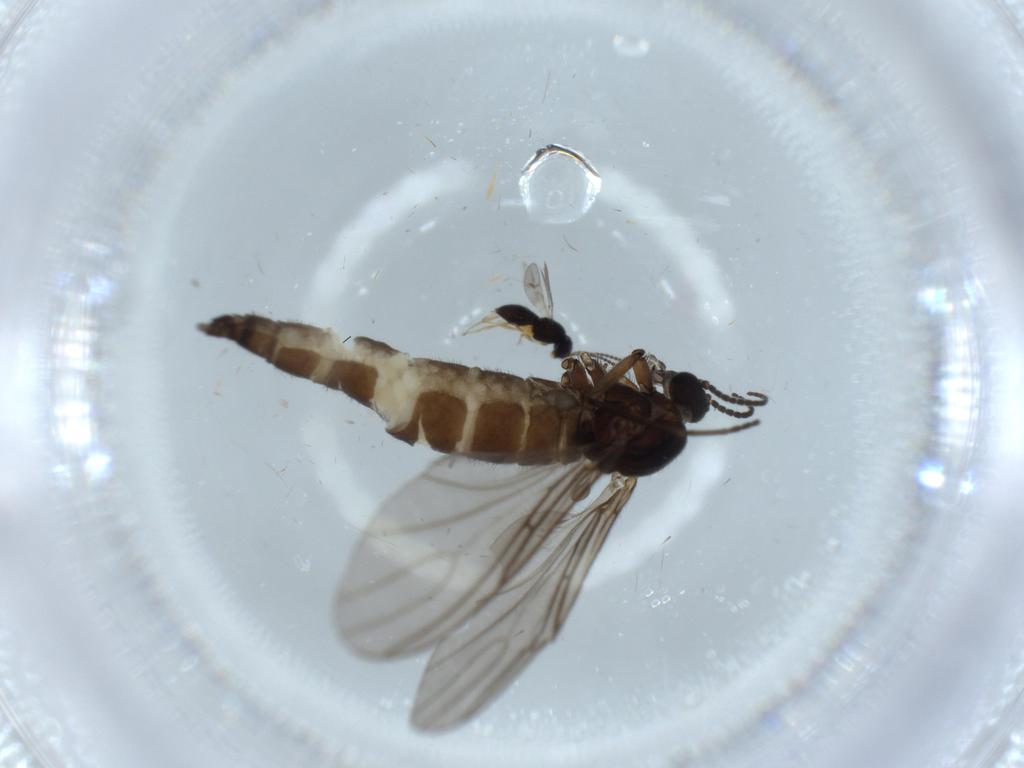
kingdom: Animalia
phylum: Arthropoda
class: Insecta
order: Diptera
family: Sciaridae
